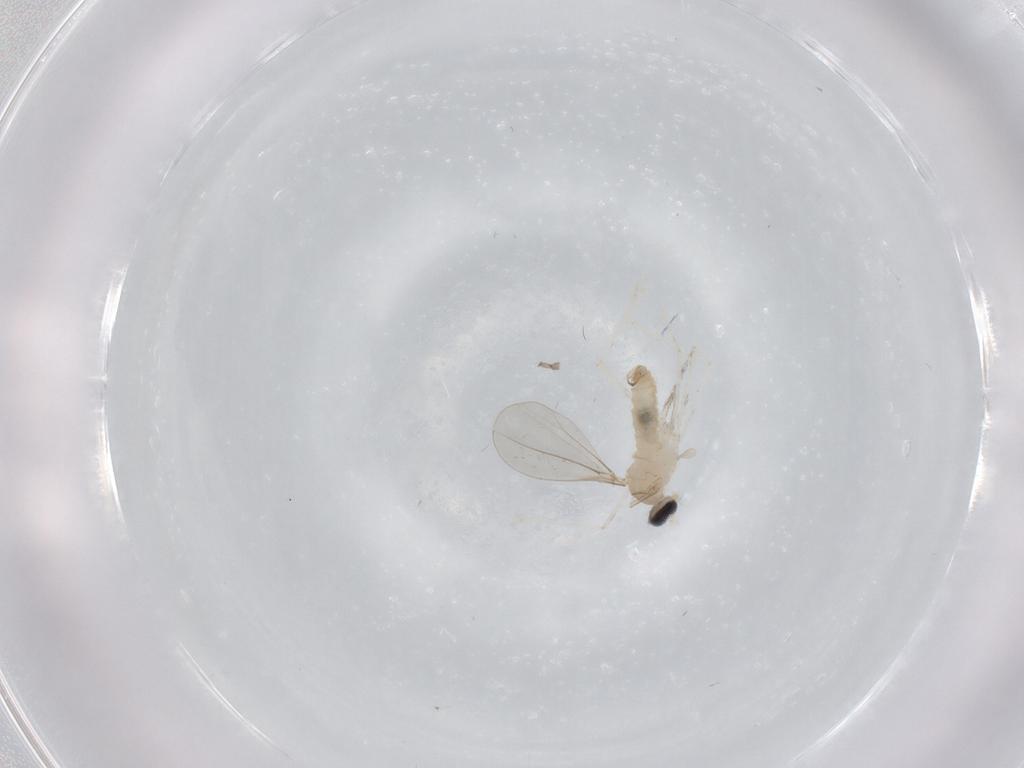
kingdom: Animalia
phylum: Arthropoda
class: Insecta
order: Diptera
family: Cecidomyiidae
